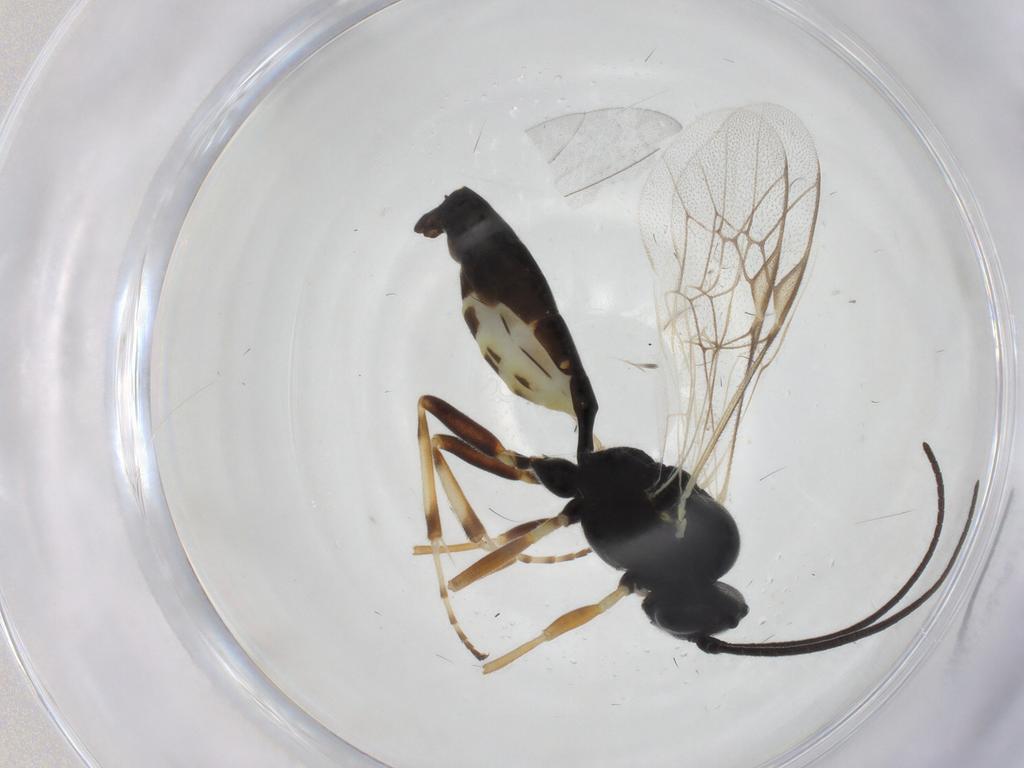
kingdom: Animalia
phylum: Arthropoda
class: Insecta
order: Hymenoptera
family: Ichneumonidae
